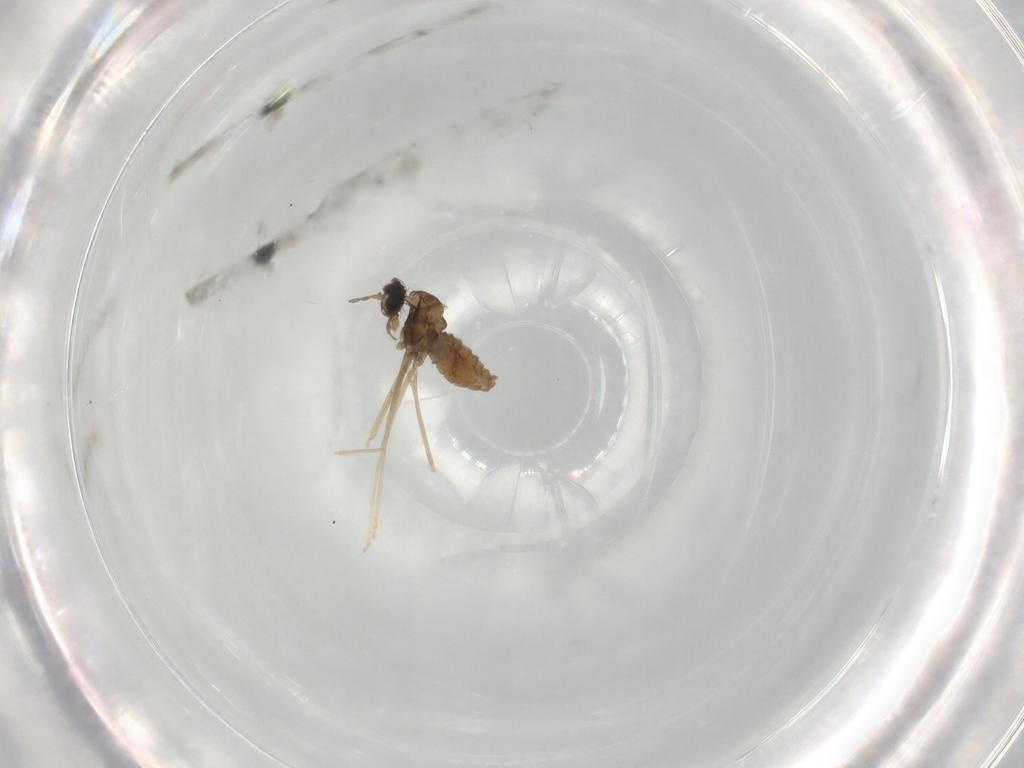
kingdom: Animalia
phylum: Arthropoda
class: Insecta
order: Diptera
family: Cecidomyiidae
